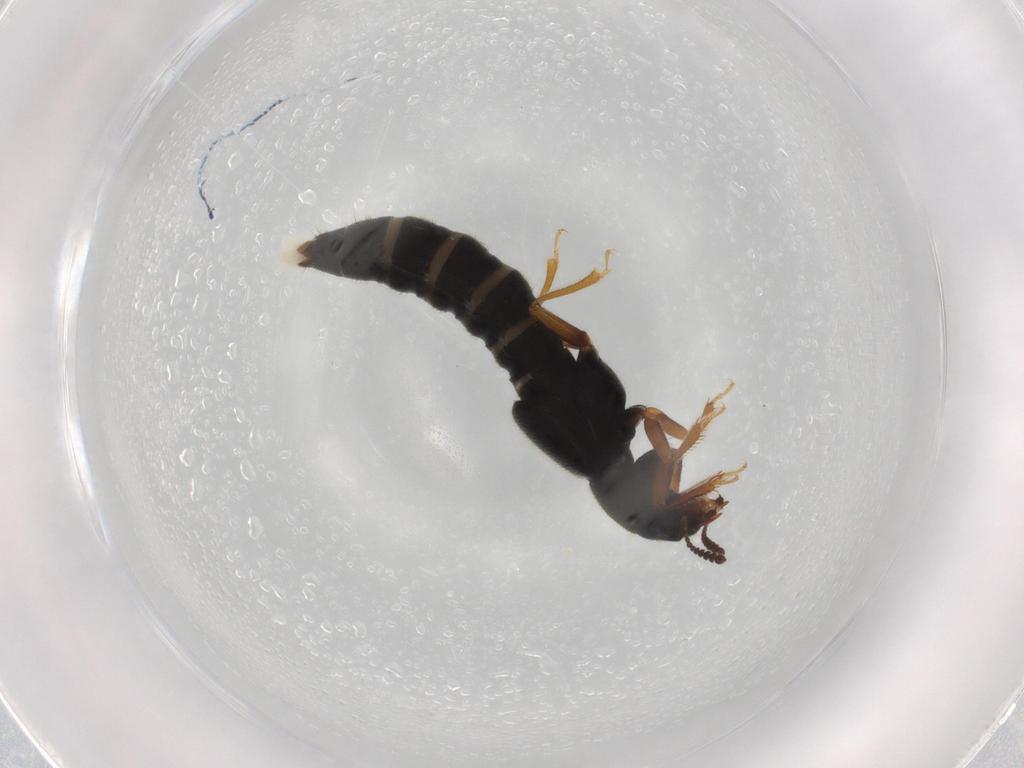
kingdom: Animalia
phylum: Arthropoda
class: Insecta
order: Coleoptera
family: Staphylinidae
